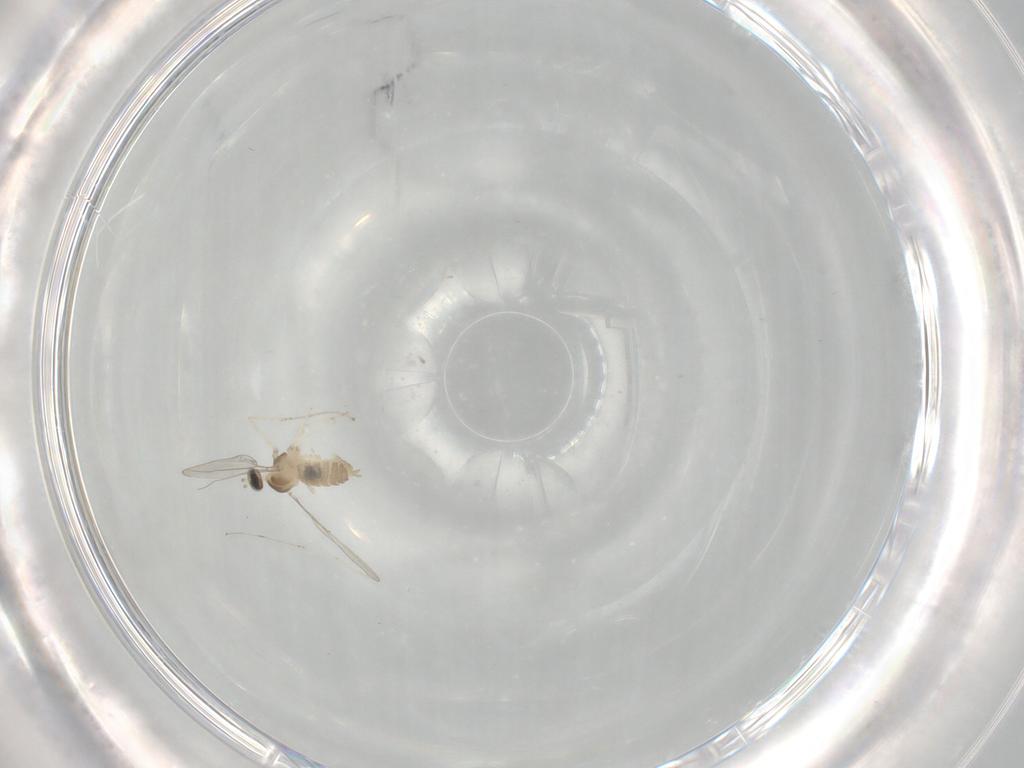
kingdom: Animalia
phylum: Arthropoda
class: Insecta
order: Diptera
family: Cecidomyiidae
